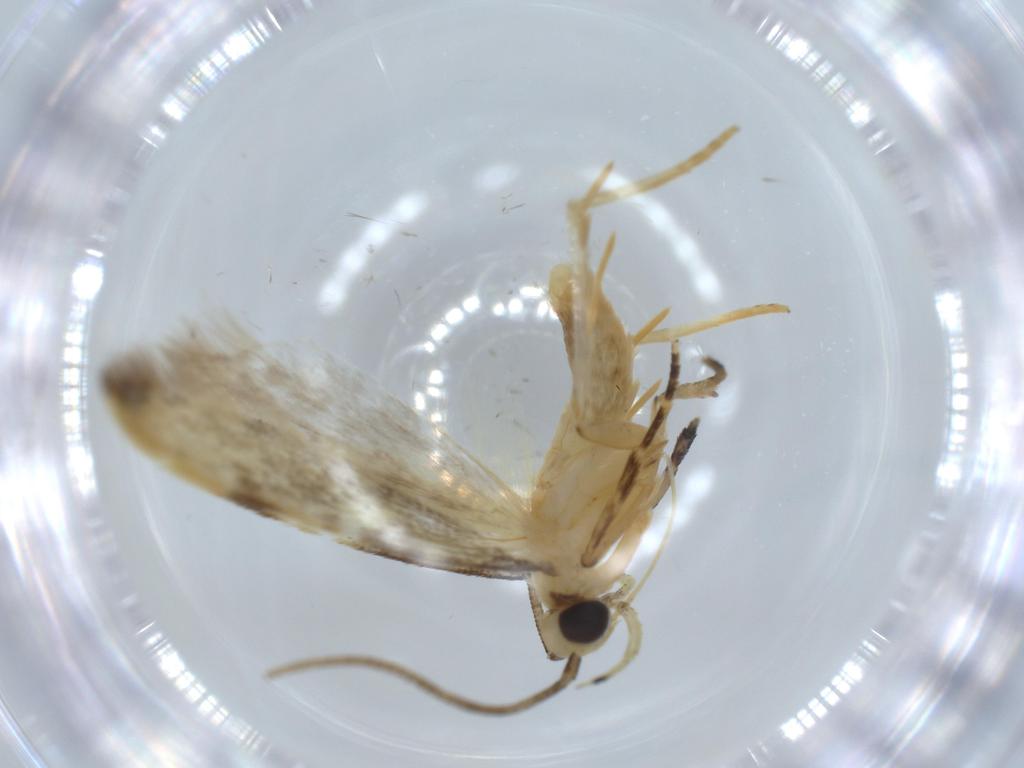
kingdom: Animalia
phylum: Arthropoda
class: Insecta
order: Lepidoptera
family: Autostichidae
